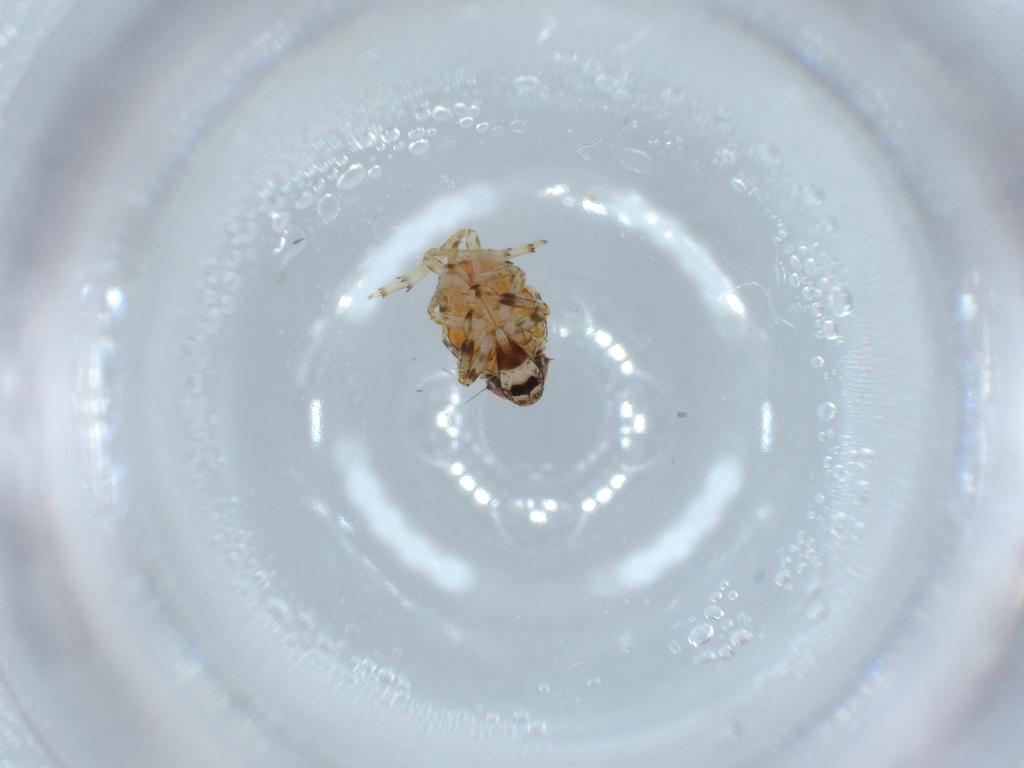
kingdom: Animalia
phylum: Arthropoda
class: Insecta
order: Hemiptera
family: Issidae
